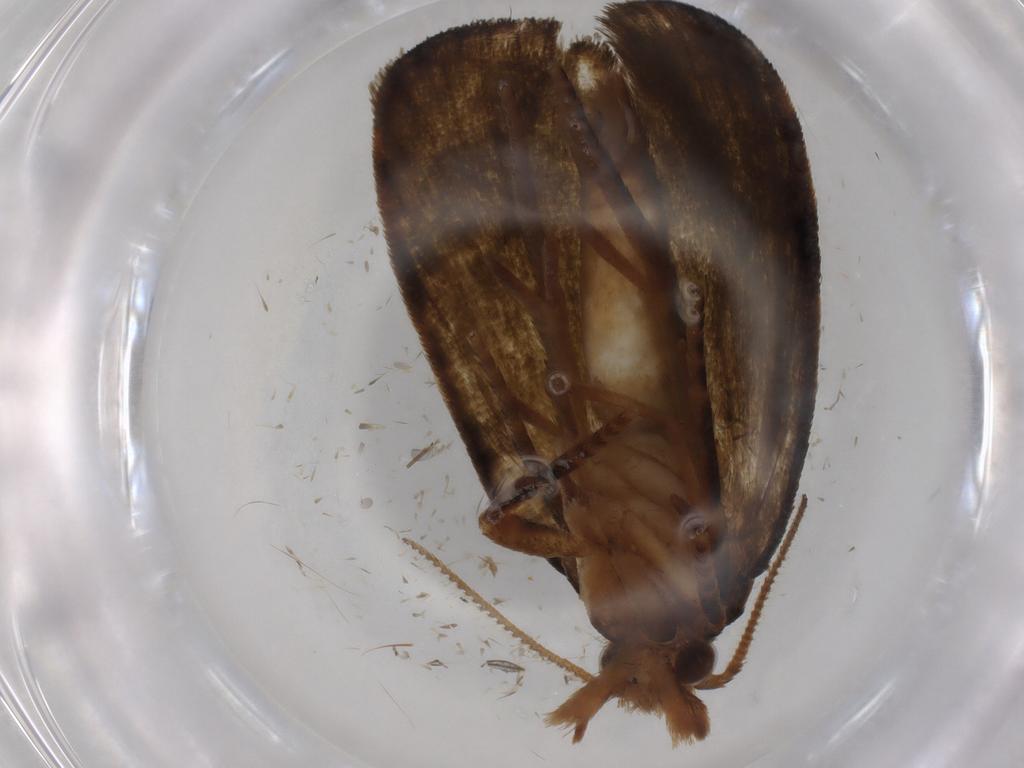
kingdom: Animalia
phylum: Arthropoda
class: Insecta
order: Lepidoptera
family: Geometridae
